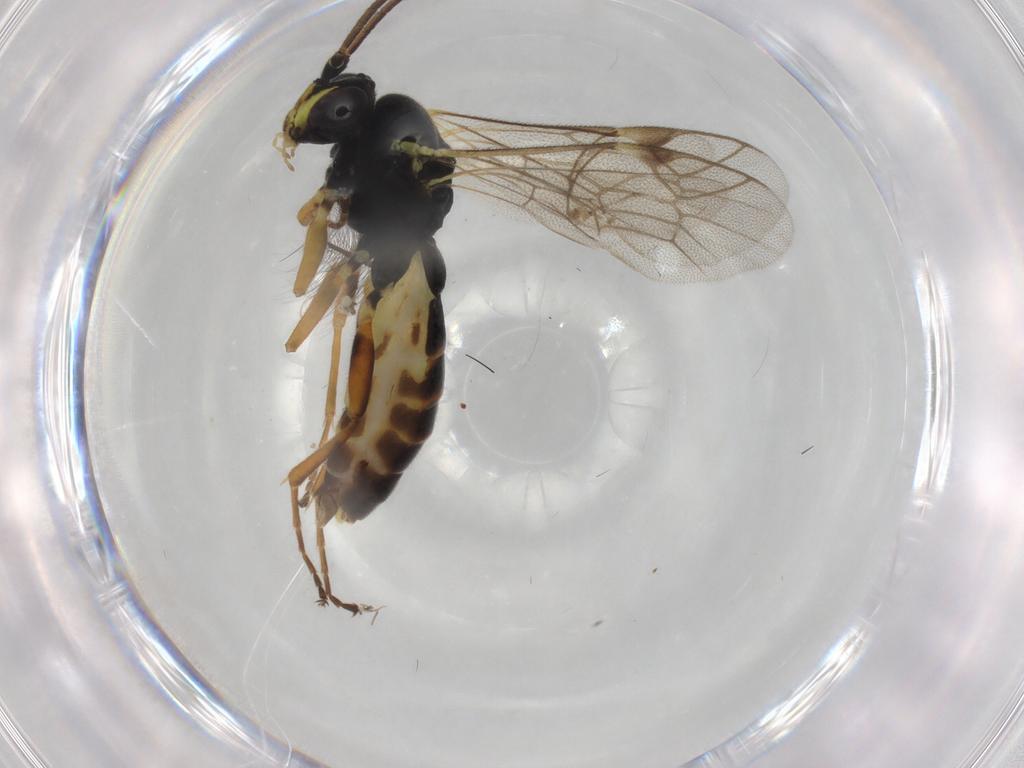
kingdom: Animalia
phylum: Arthropoda
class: Insecta
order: Hymenoptera
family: Ichneumonidae
